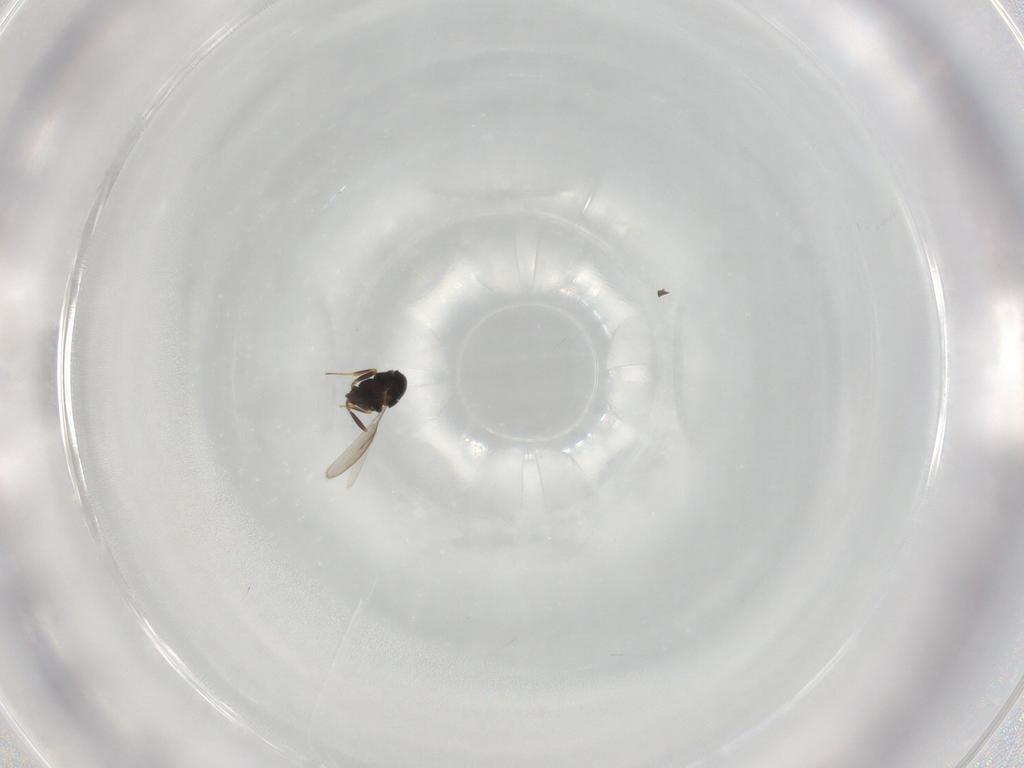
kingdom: Animalia
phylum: Arthropoda
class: Insecta
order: Hymenoptera
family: Scelionidae
